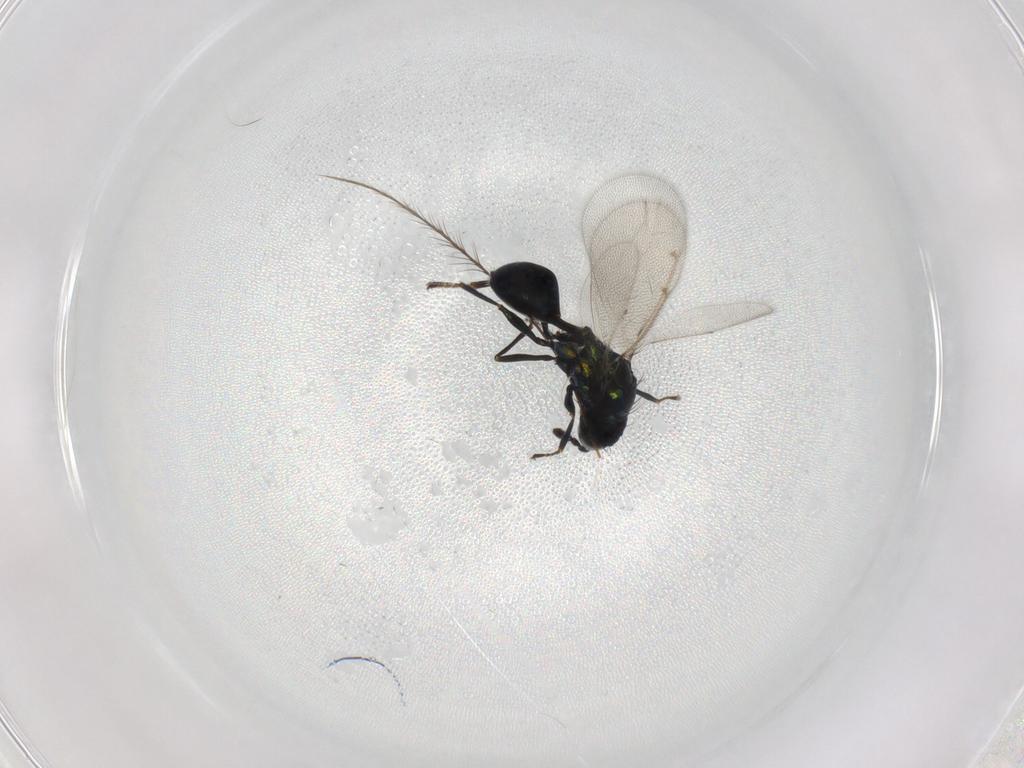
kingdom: Animalia
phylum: Arthropoda
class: Insecta
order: Hymenoptera
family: Eulophidae
